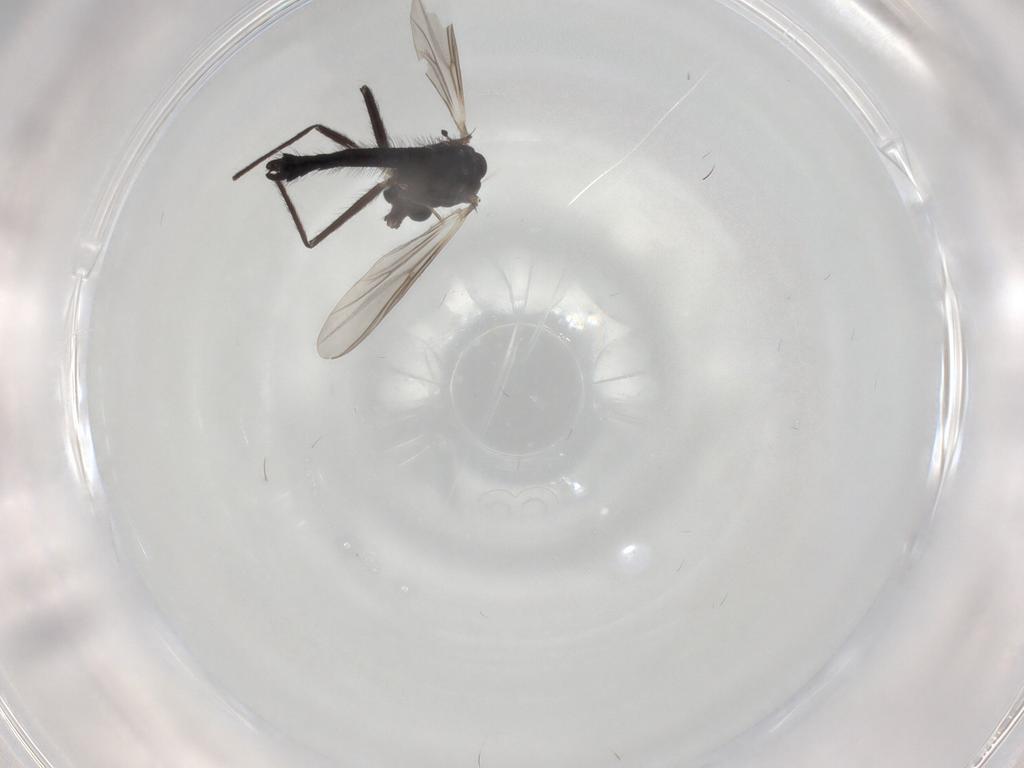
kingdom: Animalia
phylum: Arthropoda
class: Insecta
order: Diptera
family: Chironomidae
